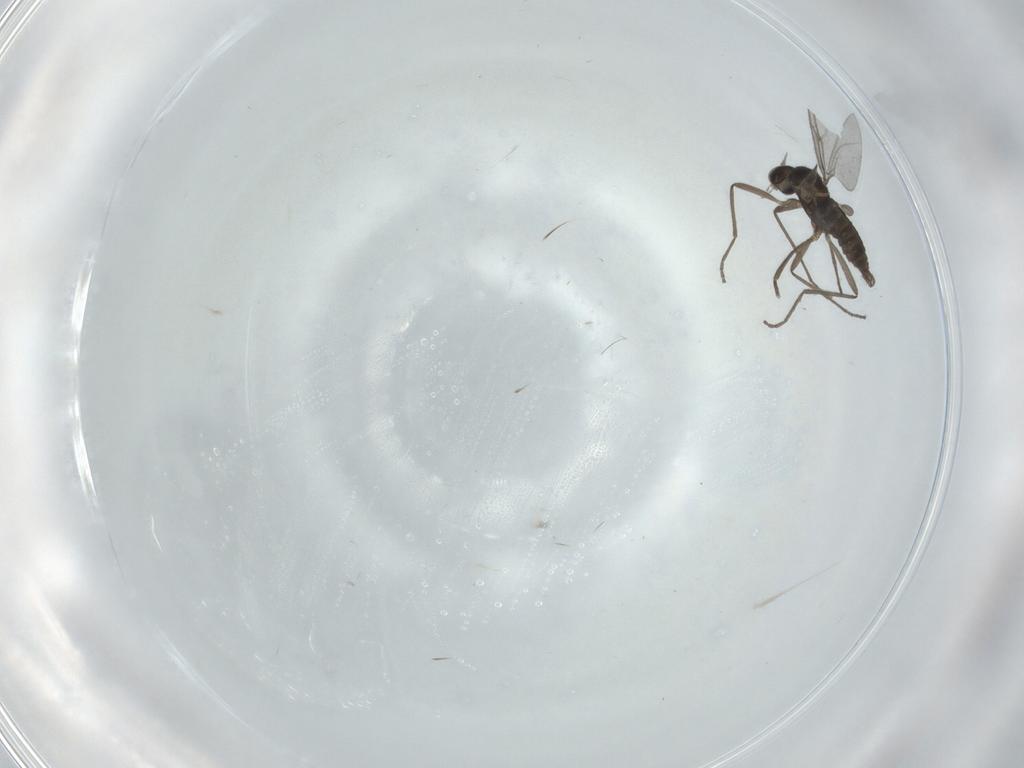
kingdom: Animalia
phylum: Arthropoda
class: Insecta
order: Diptera
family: Cecidomyiidae
